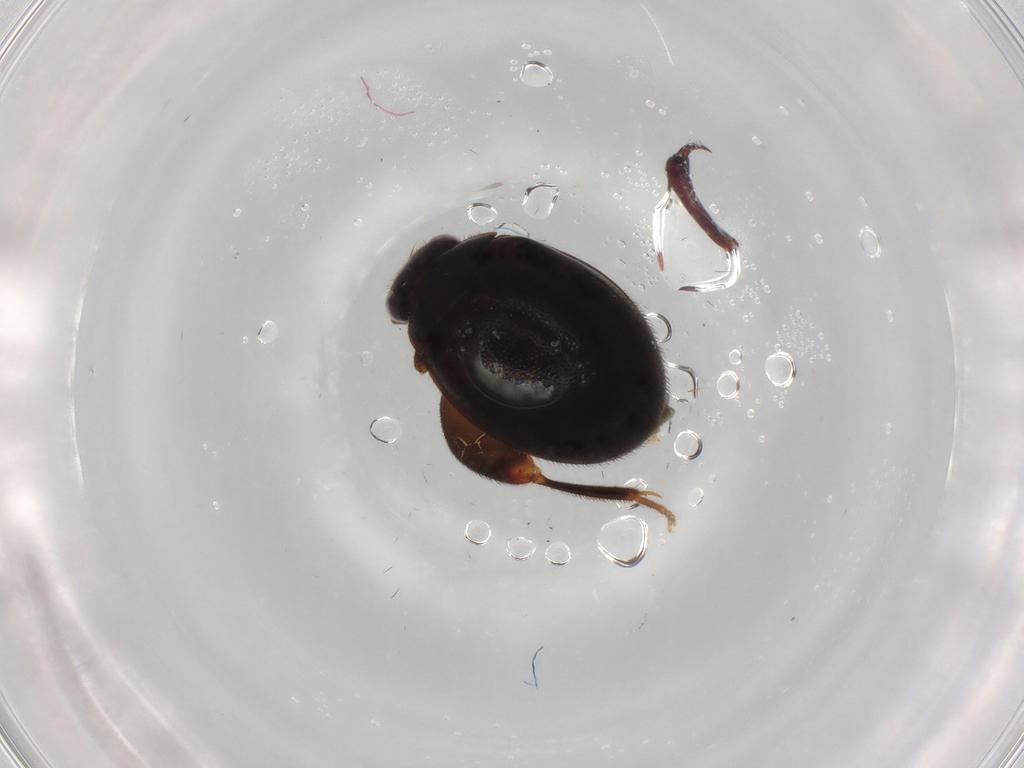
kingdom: Animalia
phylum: Arthropoda
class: Insecta
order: Coleoptera
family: Scirtidae
